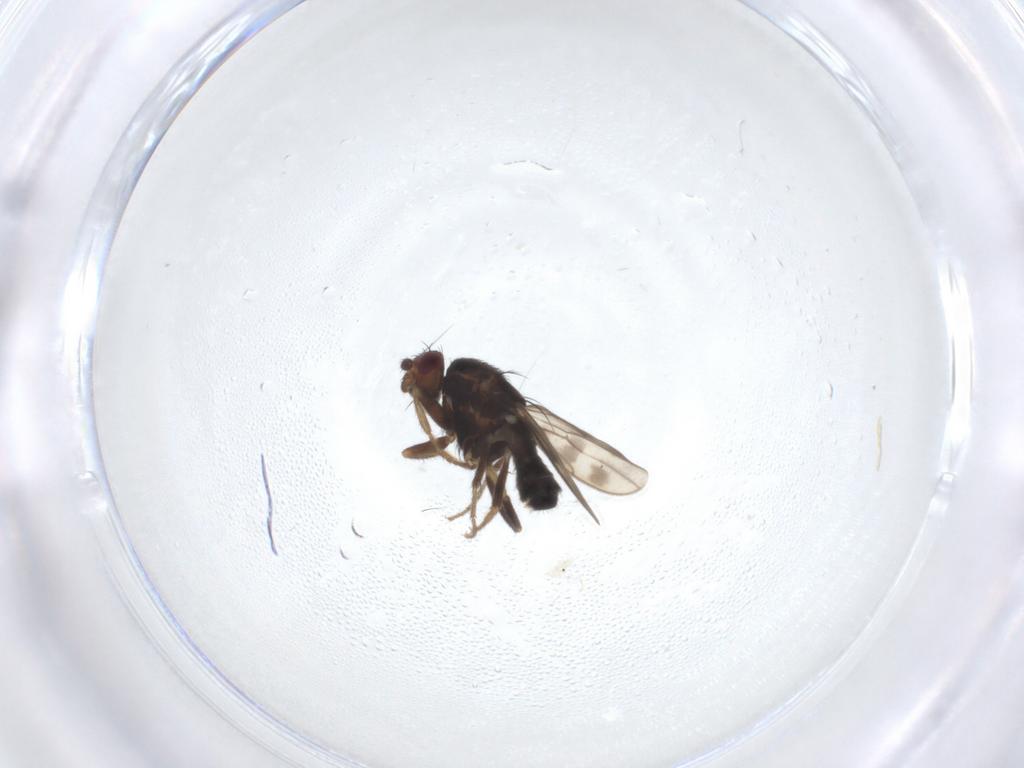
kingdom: Animalia
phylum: Arthropoda
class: Insecta
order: Diptera
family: Sphaeroceridae
